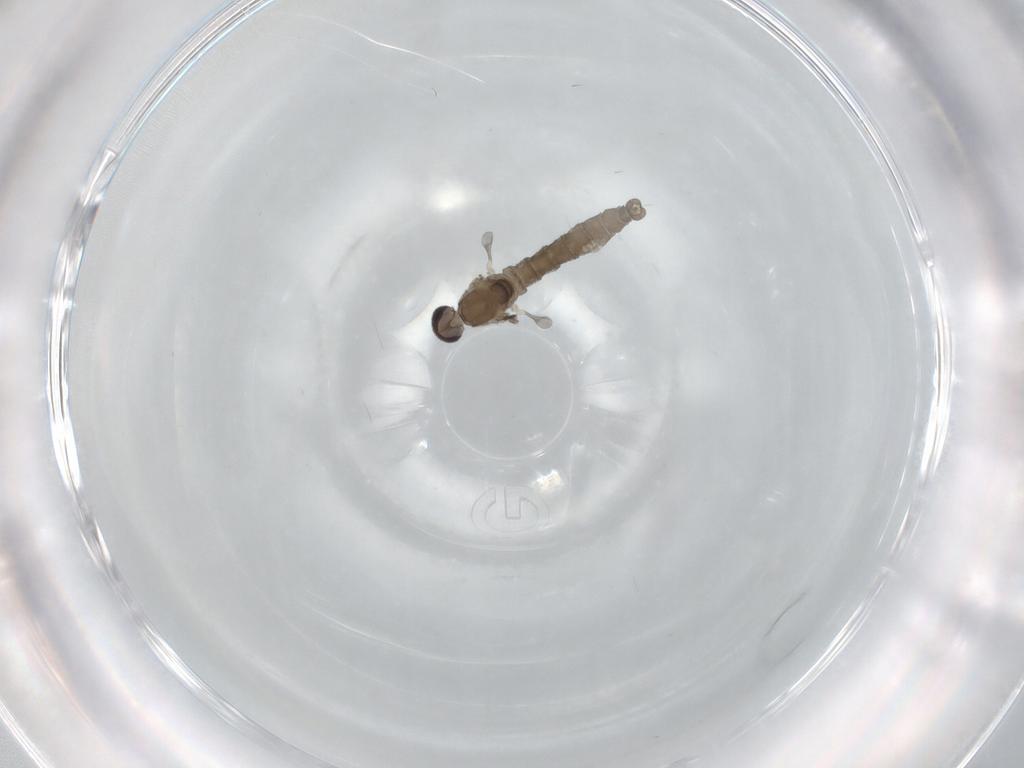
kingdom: Animalia
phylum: Arthropoda
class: Insecta
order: Diptera
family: Cecidomyiidae
